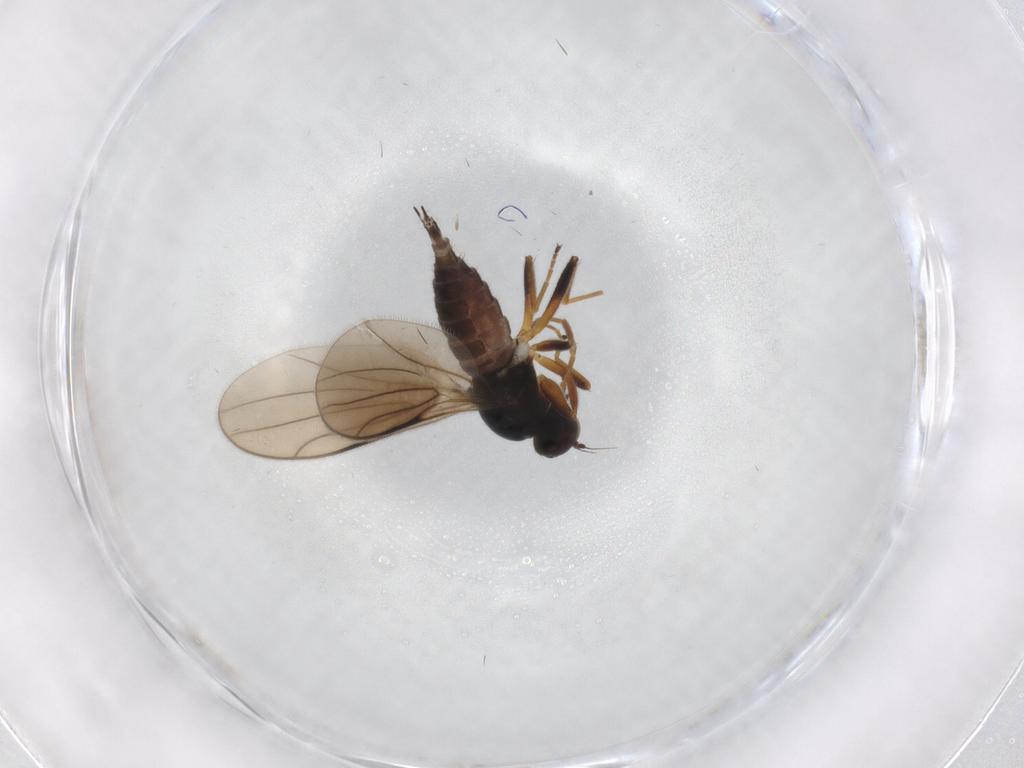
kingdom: Animalia
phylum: Arthropoda
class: Insecta
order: Diptera
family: Hybotidae
